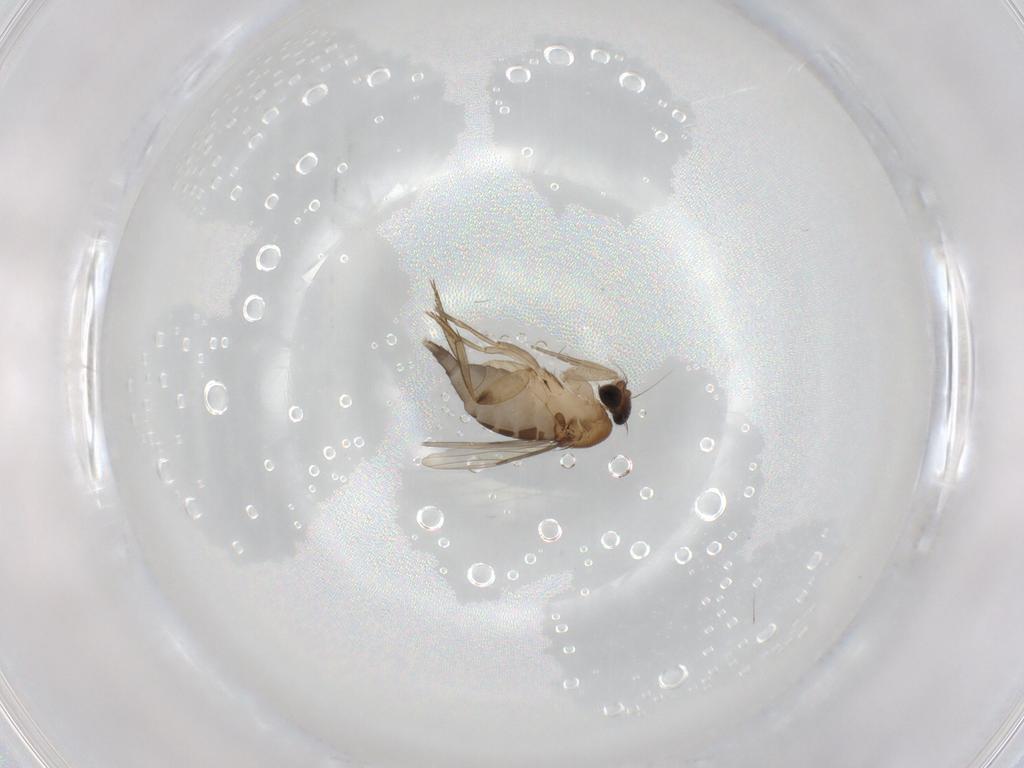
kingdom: Animalia
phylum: Arthropoda
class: Insecta
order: Diptera
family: Phoridae
